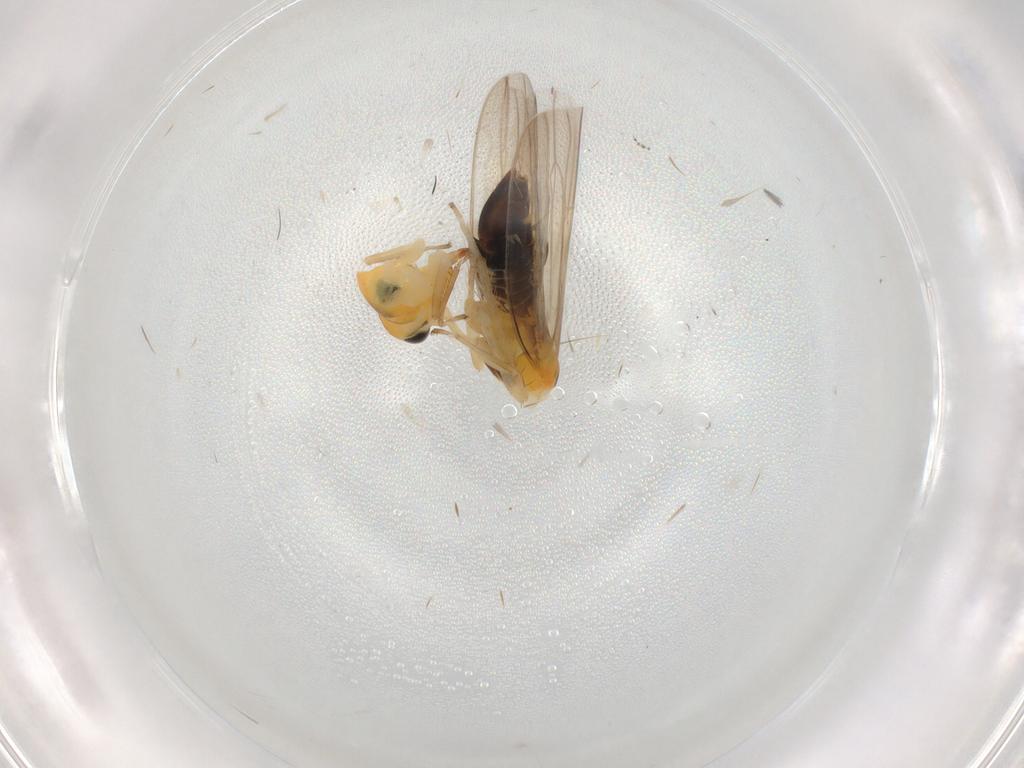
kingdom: Animalia
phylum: Arthropoda
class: Insecta
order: Hemiptera
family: Cicadellidae
